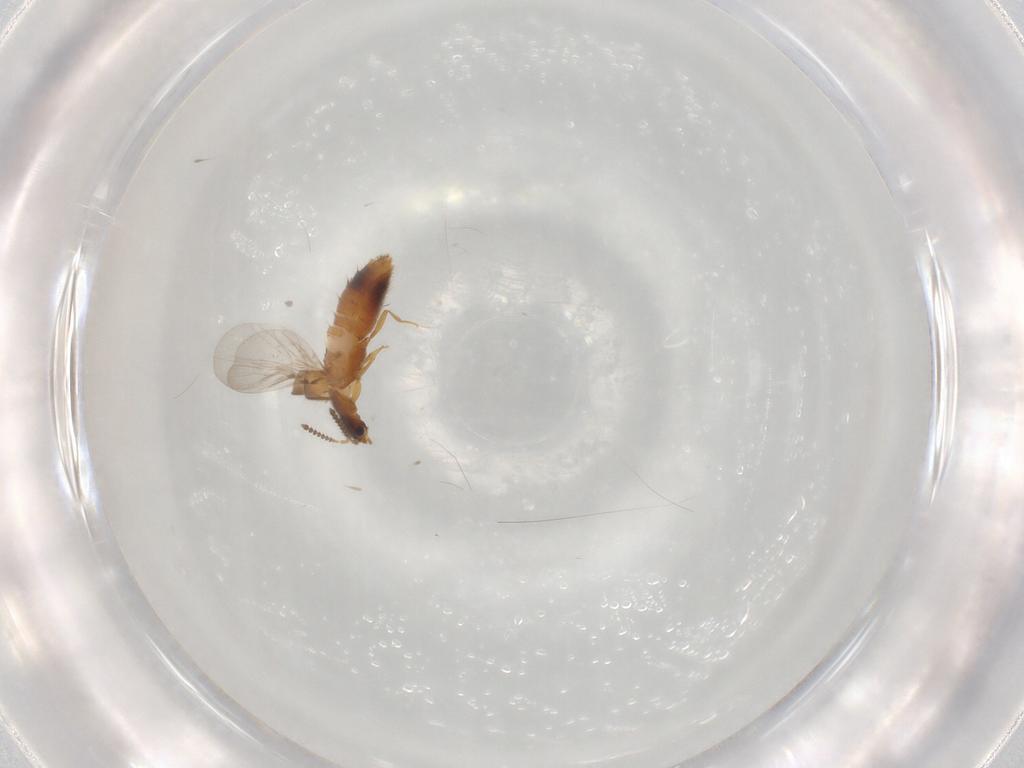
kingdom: Animalia
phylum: Arthropoda
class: Insecta
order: Coleoptera
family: Staphylinidae
